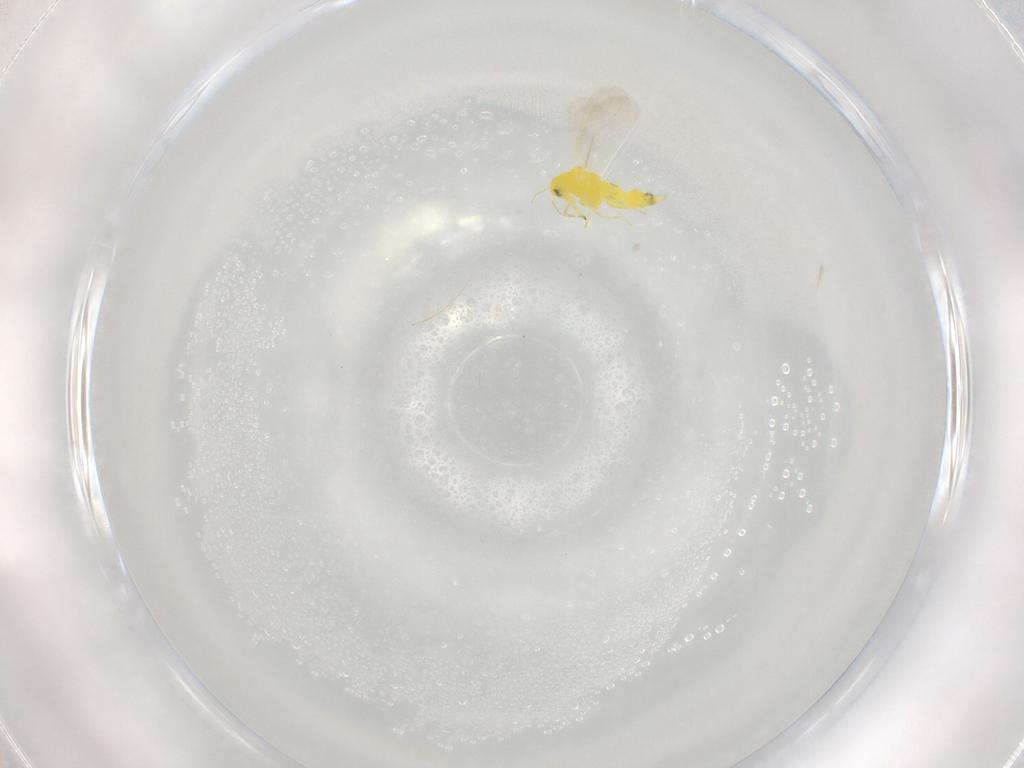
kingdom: Animalia
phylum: Arthropoda
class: Insecta
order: Hemiptera
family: Aleyrodidae
